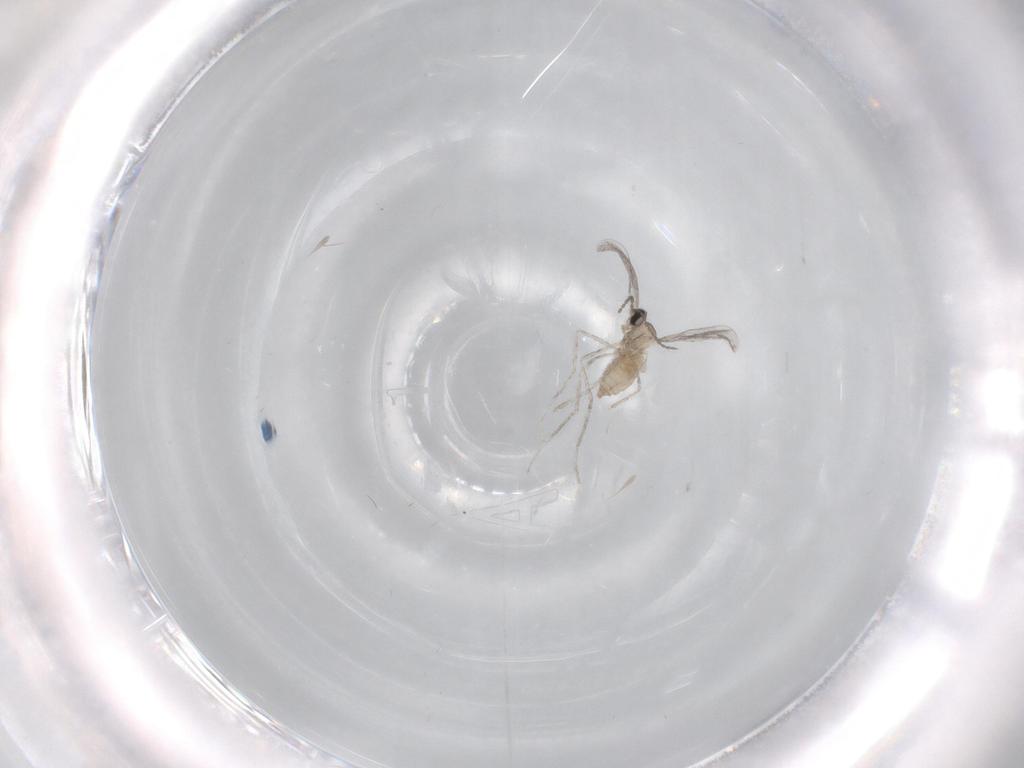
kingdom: Animalia
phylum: Arthropoda
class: Insecta
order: Diptera
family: Cecidomyiidae
